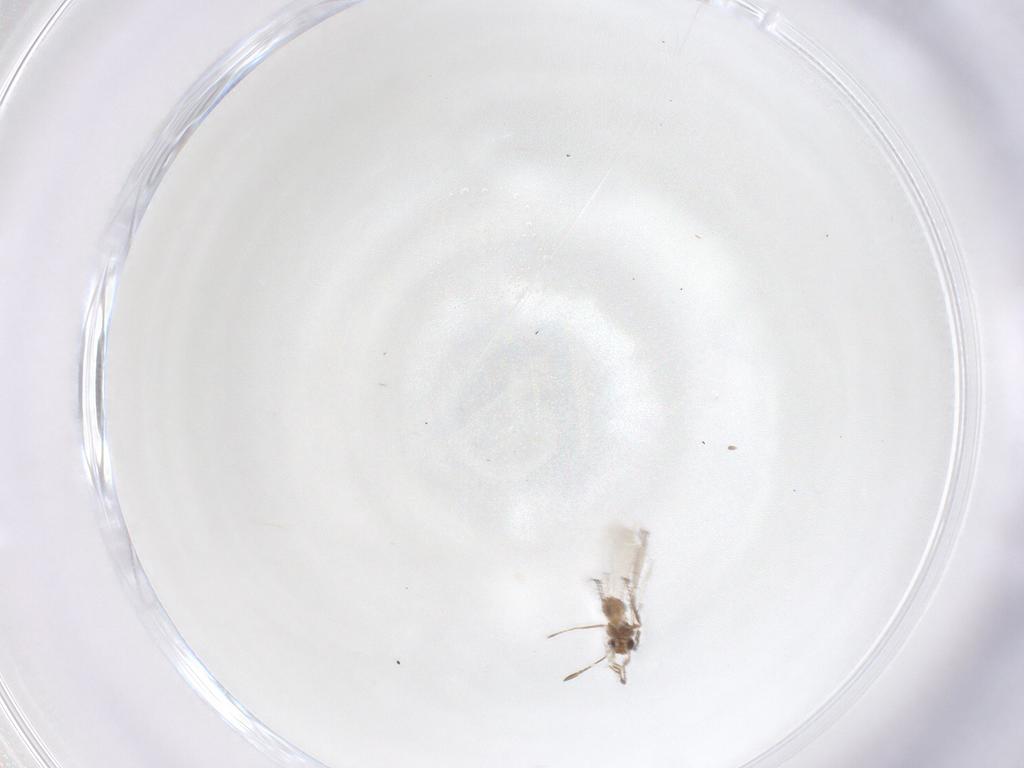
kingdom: Animalia
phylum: Arthropoda
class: Insecta
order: Hymenoptera
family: Mymaridae
